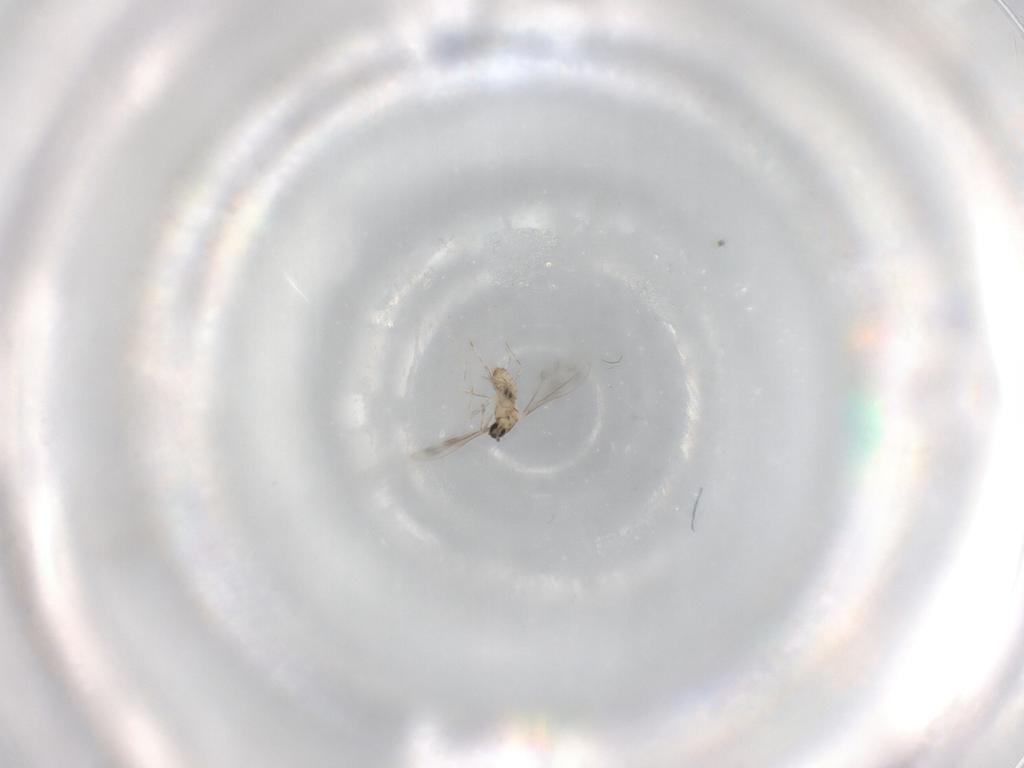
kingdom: Animalia
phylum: Arthropoda
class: Insecta
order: Diptera
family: Cecidomyiidae
